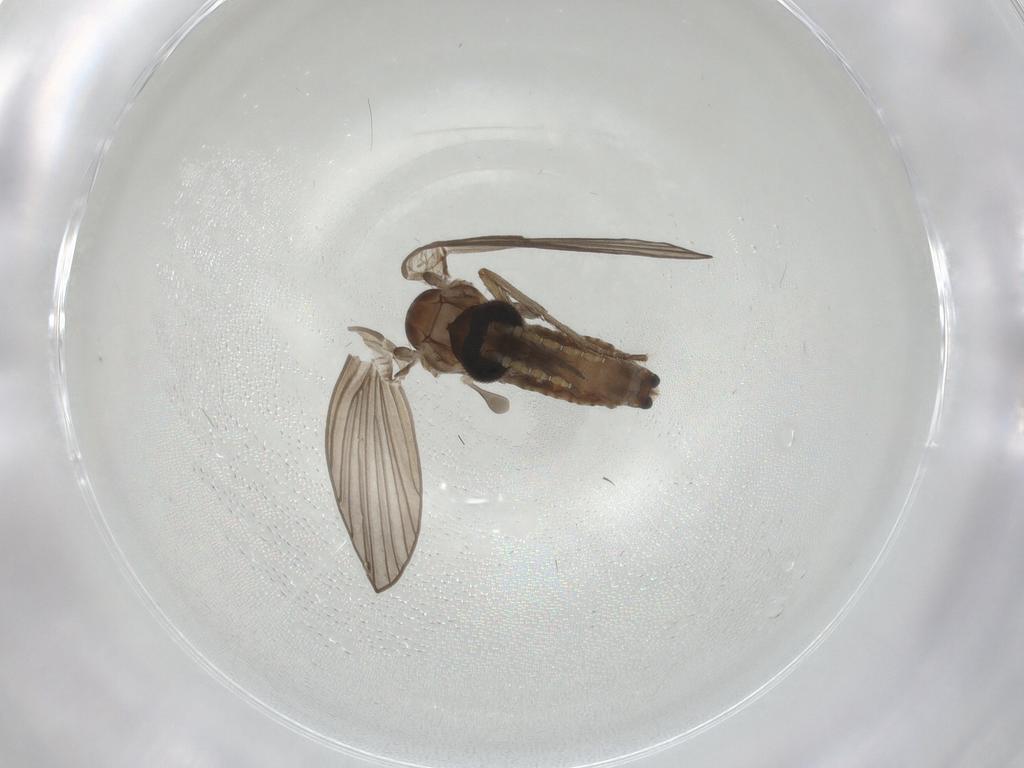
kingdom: Animalia
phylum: Arthropoda
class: Insecta
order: Diptera
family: Psychodidae
